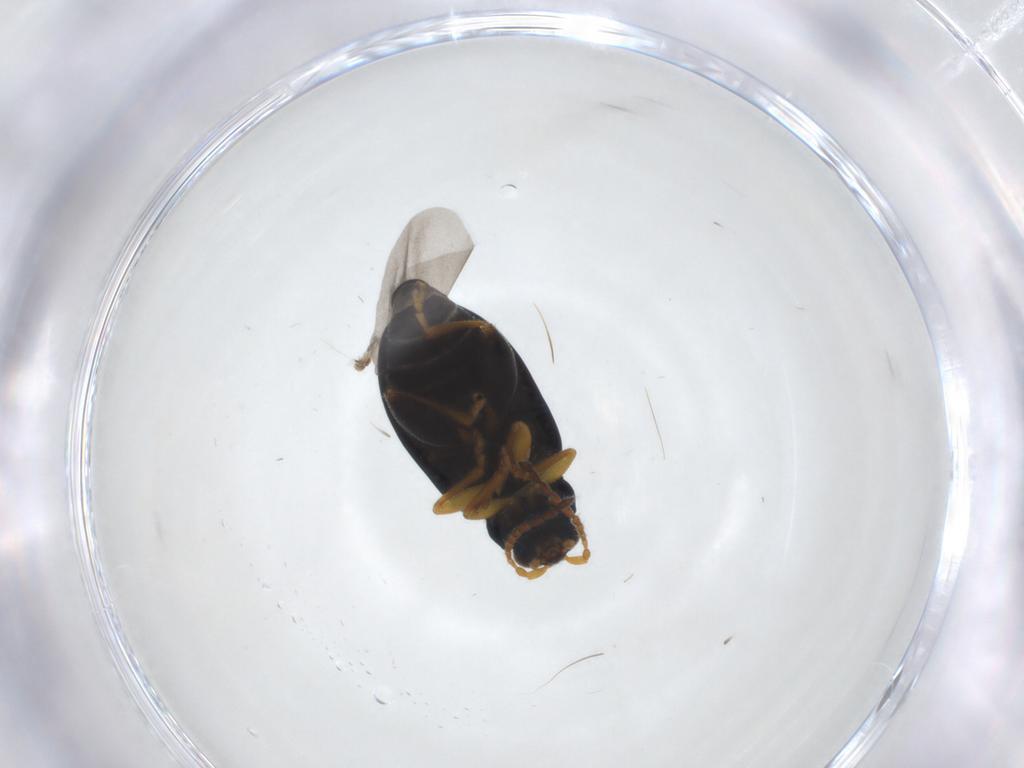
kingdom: Animalia
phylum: Arthropoda
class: Insecta
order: Coleoptera
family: Chrysomelidae
